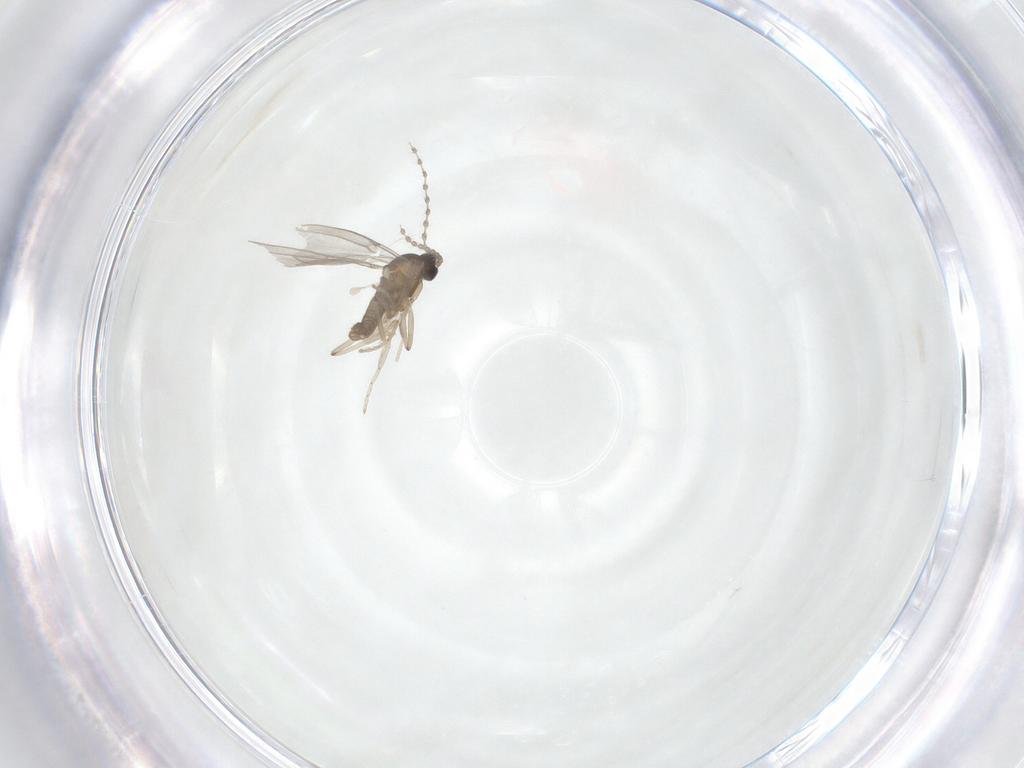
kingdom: Animalia
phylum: Arthropoda
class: Insecta
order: Diptera
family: Cecidomyiidae
